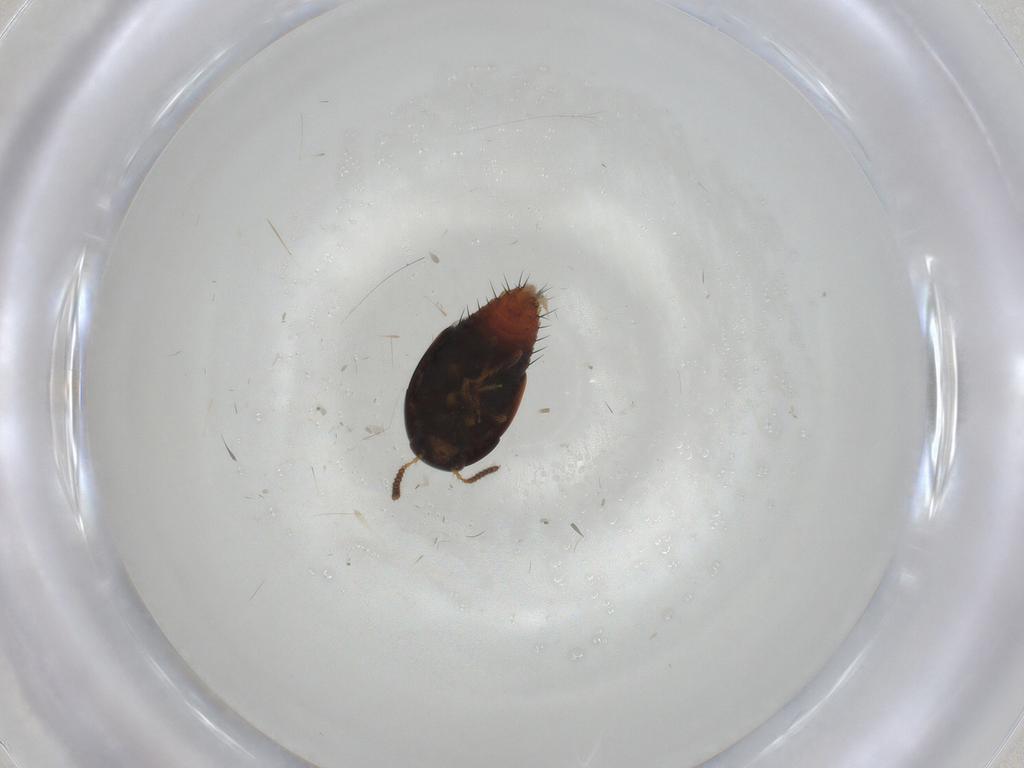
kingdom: Animalia
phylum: Arthropoda
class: Insecta
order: Coleoptera
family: Staphylinidae
